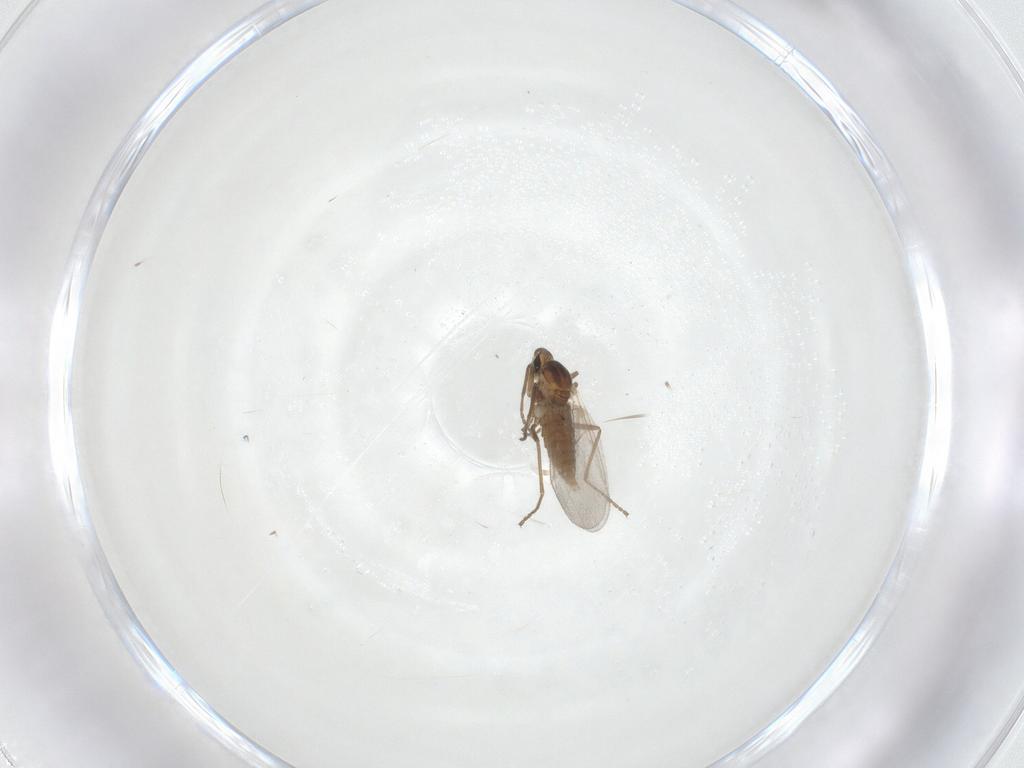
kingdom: Animalia
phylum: Arthropoda
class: Insecta
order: Diptera
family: Cecidomyiidae
